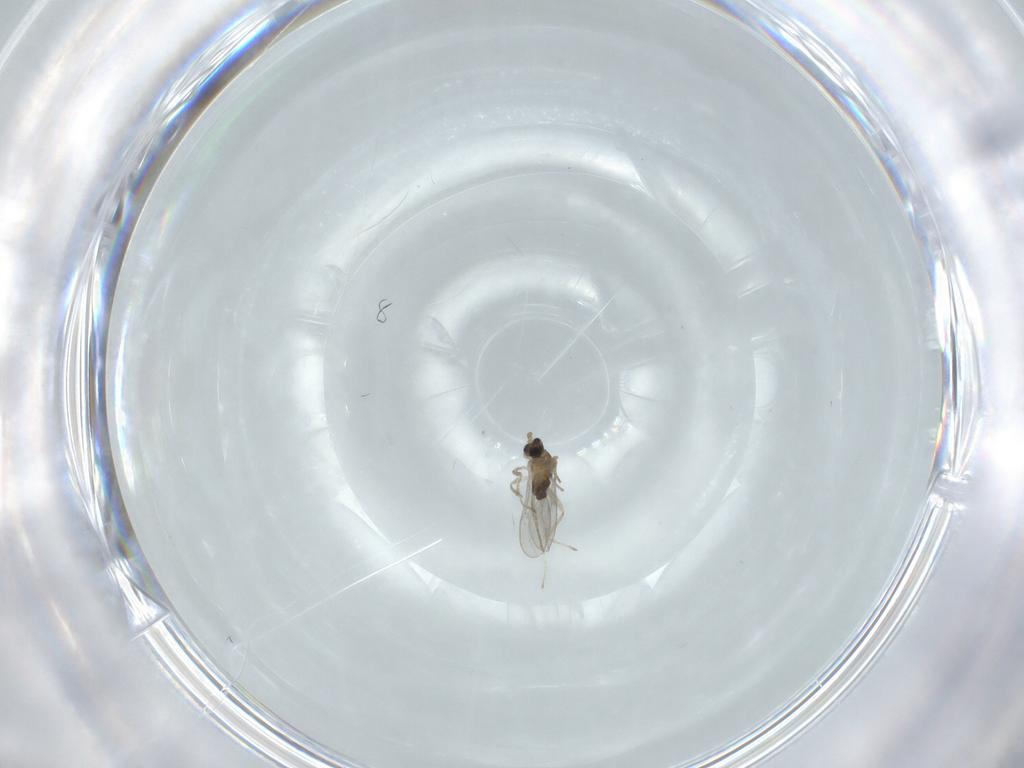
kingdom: Animalia
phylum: Arthropoda
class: Insecta
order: Diptera
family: Cecidomyiidae
